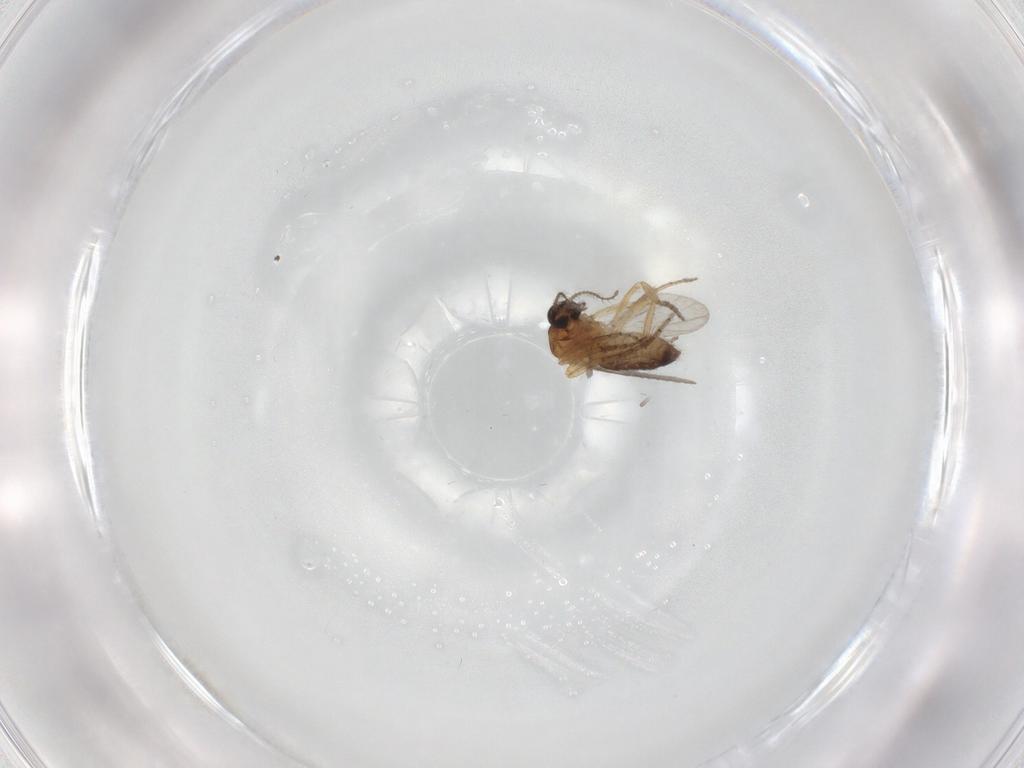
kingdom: Animalia
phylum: Arthropoda
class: Insecta
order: Diptera
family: Ceratopogonidae
